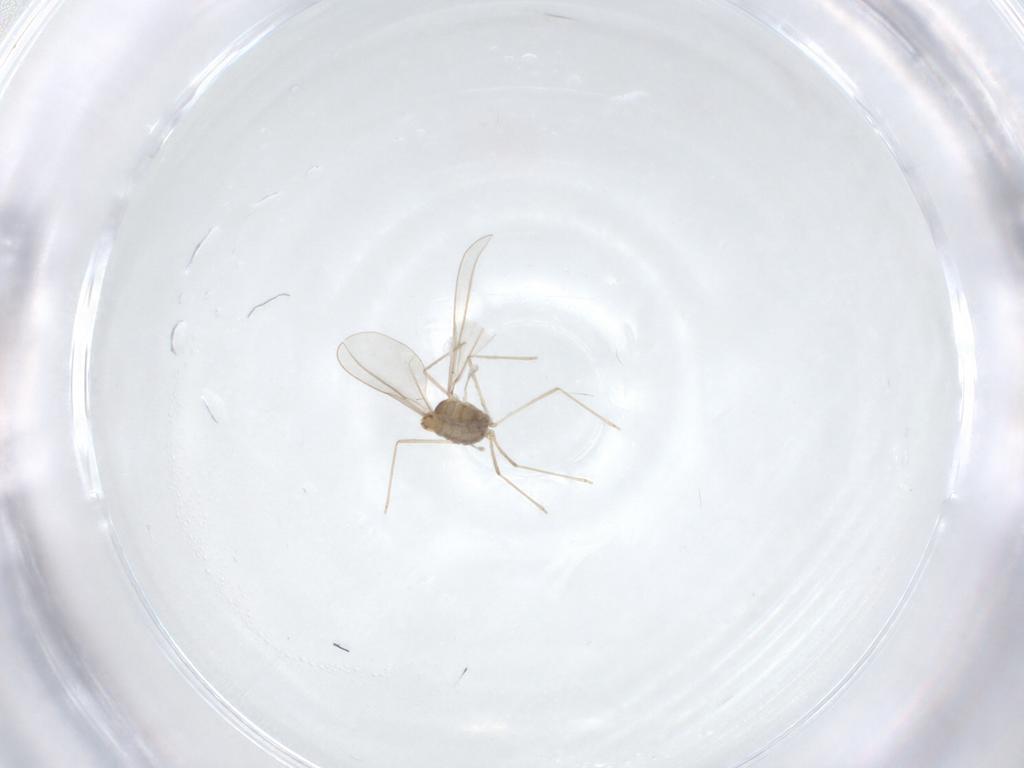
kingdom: Animalia
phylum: Arthropoda
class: Insecta
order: Diptera
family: Cecidomyiidae
